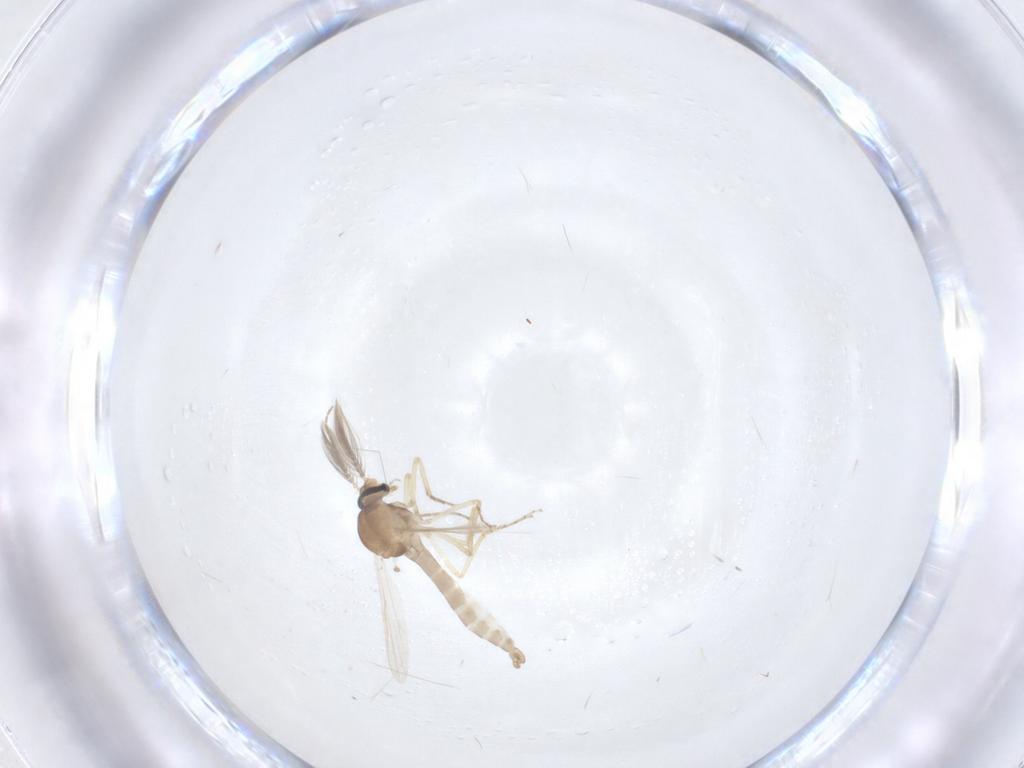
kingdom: Animalia
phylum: Arthropoda
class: Insecta
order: Diptera
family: Ceratopogonidae
